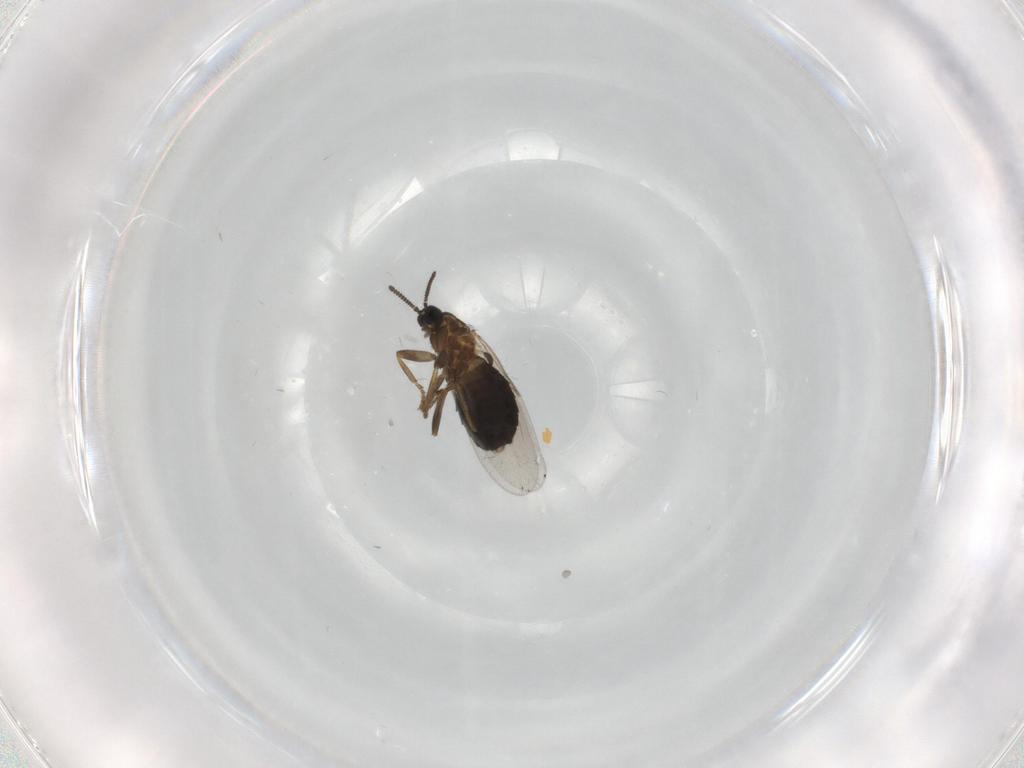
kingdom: Animalia
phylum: Arthropoda
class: Insecta
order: Diptera
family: Scatopsidae
